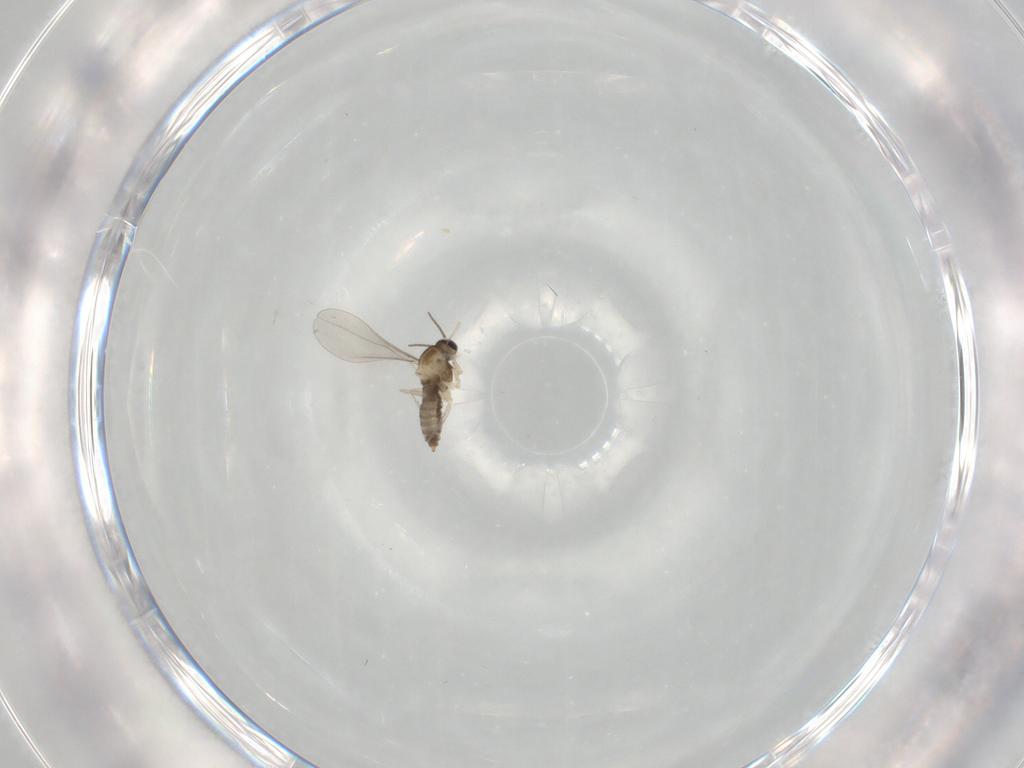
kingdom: Animalia
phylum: Arthropoda
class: Insecta
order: Diptera
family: Cecidomyiidae
